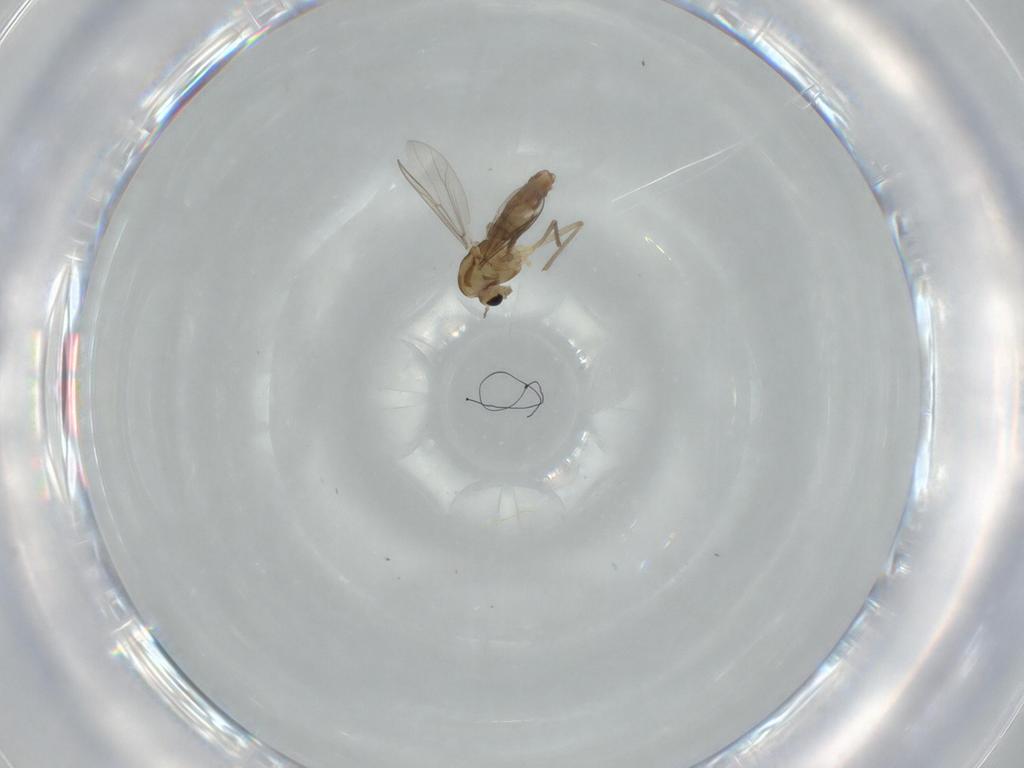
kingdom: Animalia
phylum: Arthropoda
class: Insecta
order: Diptera
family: Chironomidae
